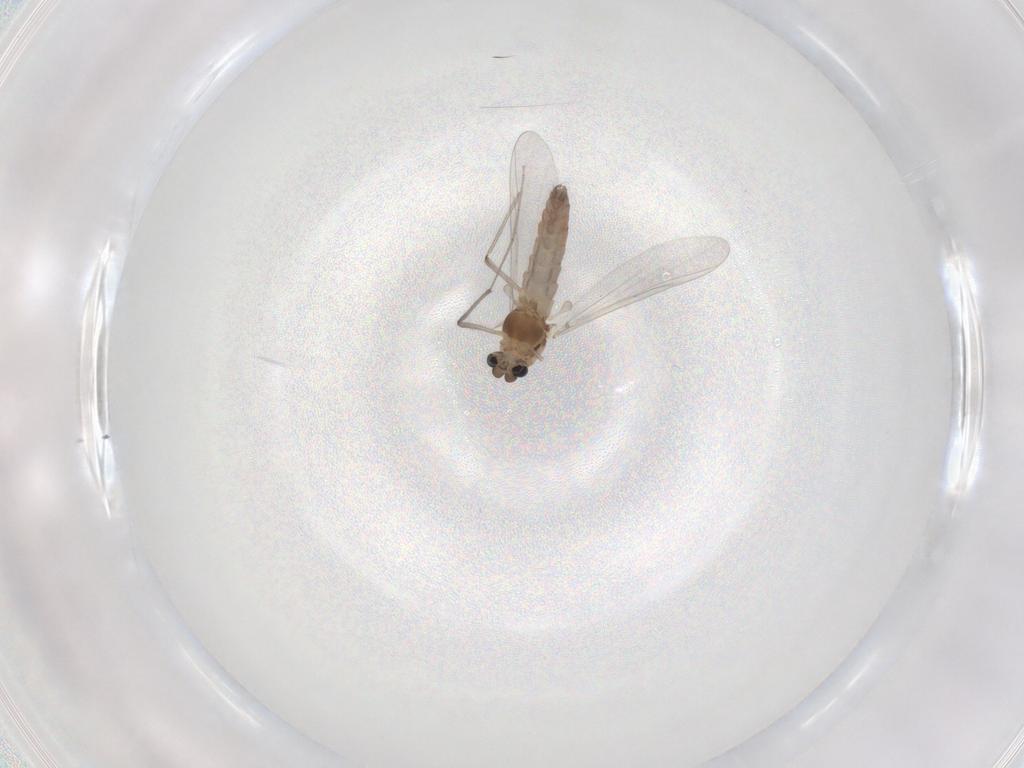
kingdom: Animalia
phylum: Arthropoda
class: Insecta
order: Diptera
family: Chironomidae
